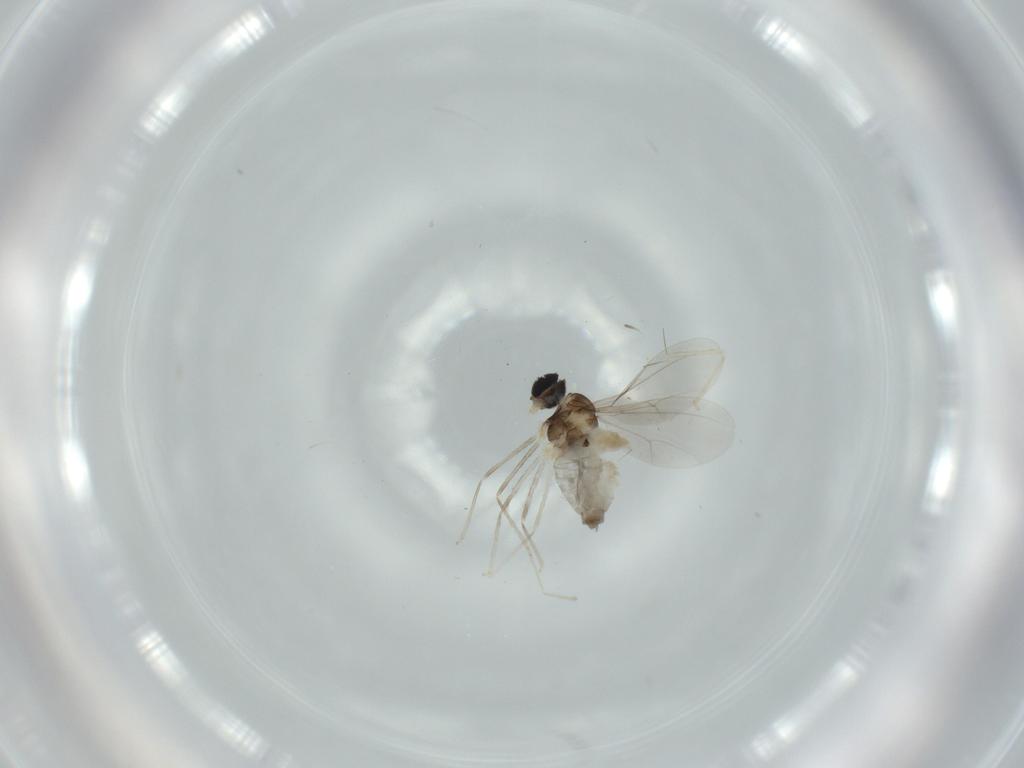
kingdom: Animalia
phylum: Arthropoda
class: Insecta
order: Diptera
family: Cecidomyiidae
